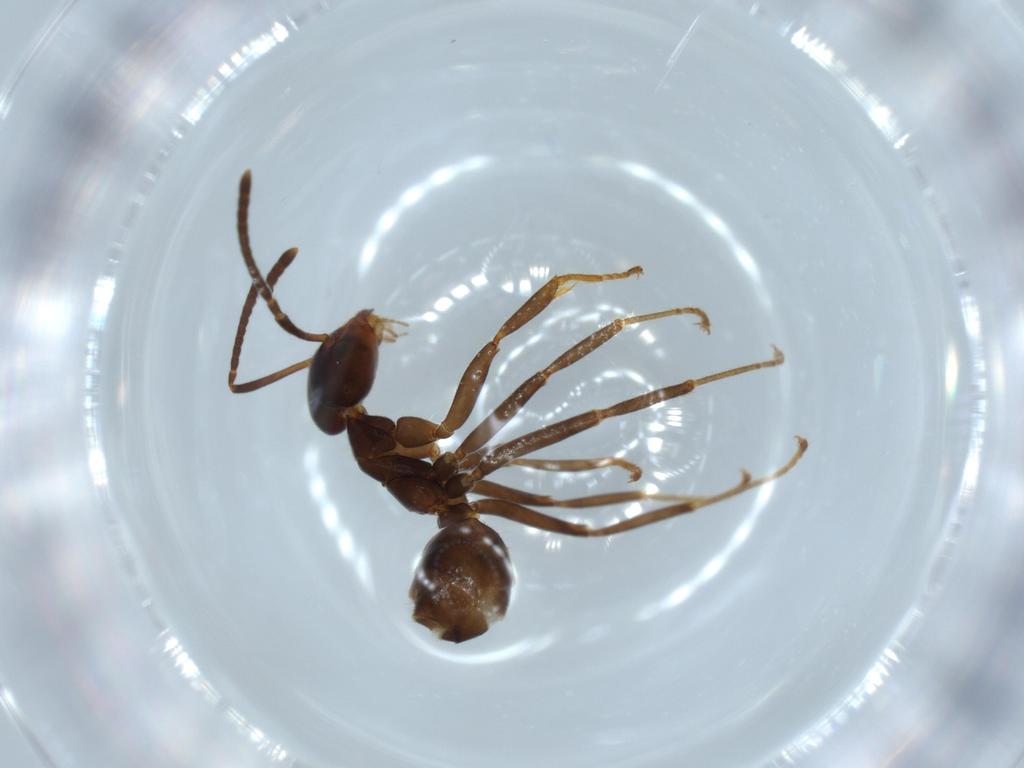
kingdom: Animalia
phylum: Arthropoda
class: Insecta
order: Hymenoptera
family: Formicidae
